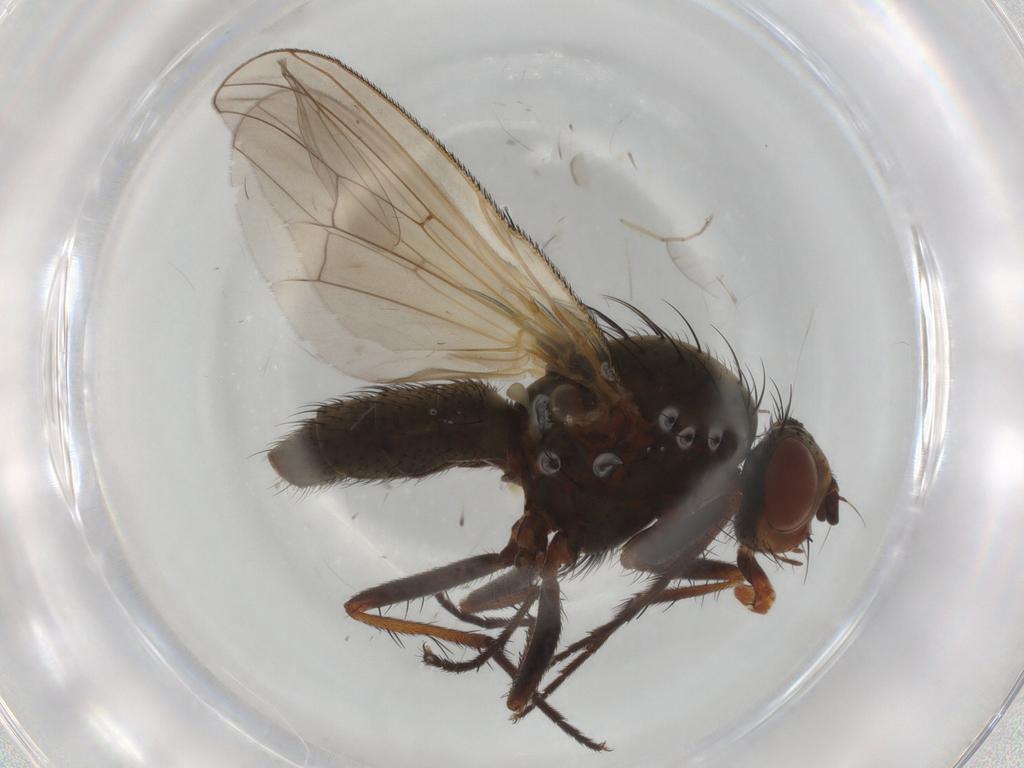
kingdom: Animalia
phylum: Arthropoda
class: Insecta
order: Diptera
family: Anthomyiidae
